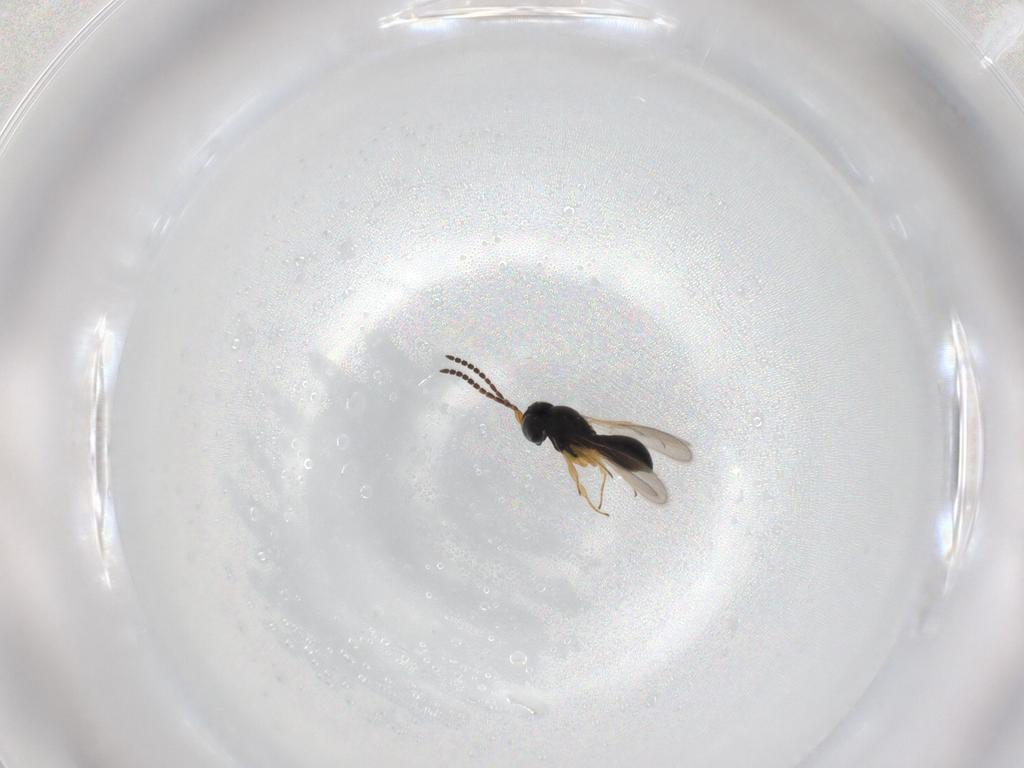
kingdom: Animalia
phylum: Arthropoda
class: Insecta
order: Hymenoptera
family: Scelionidae
